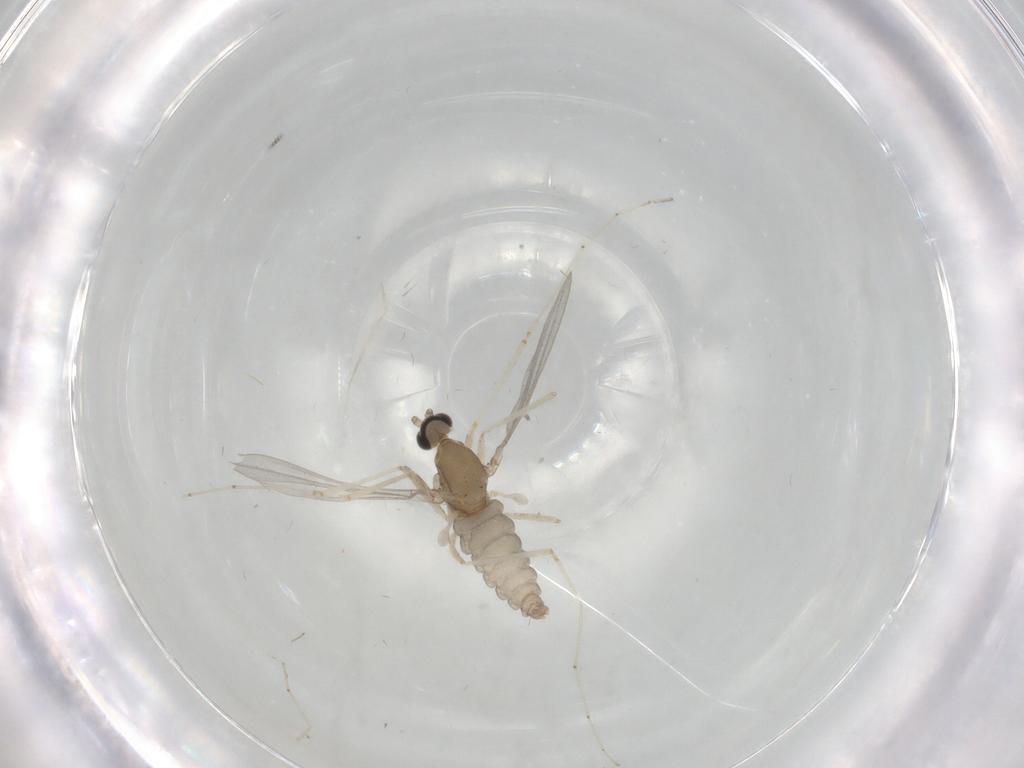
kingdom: Animalia
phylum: Arthropoda
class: Insecta
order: Diptera
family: Cecidomyiidae
